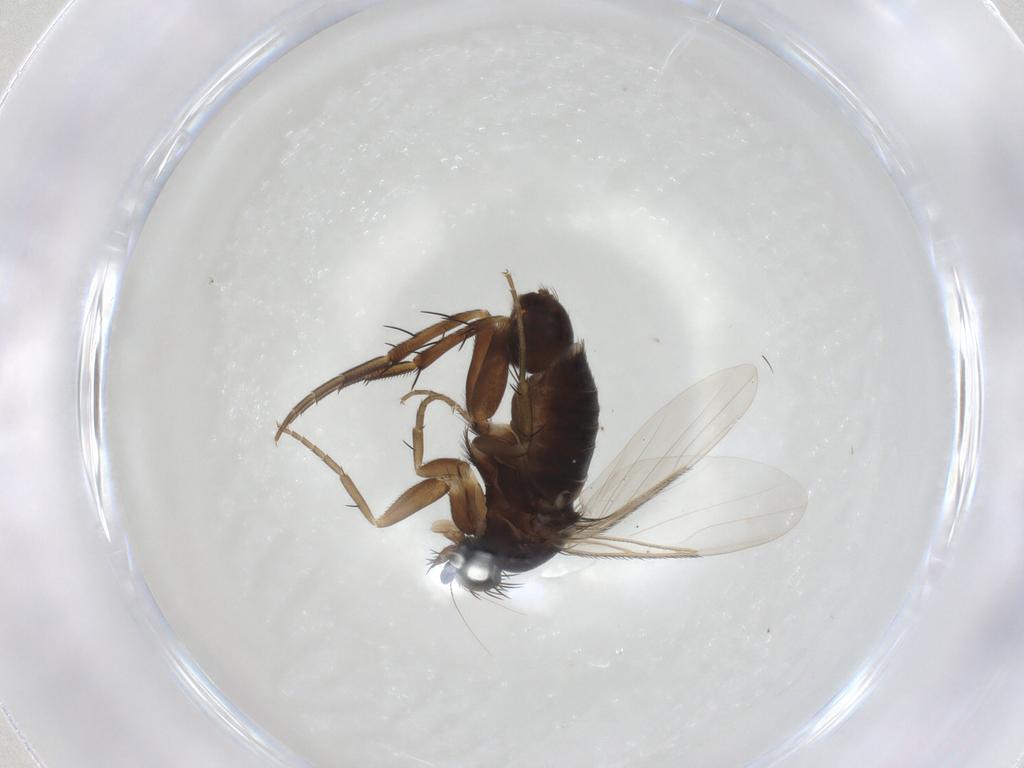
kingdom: Animalia
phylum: Arthropoda
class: Insecta
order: Diptera
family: Phoridae
